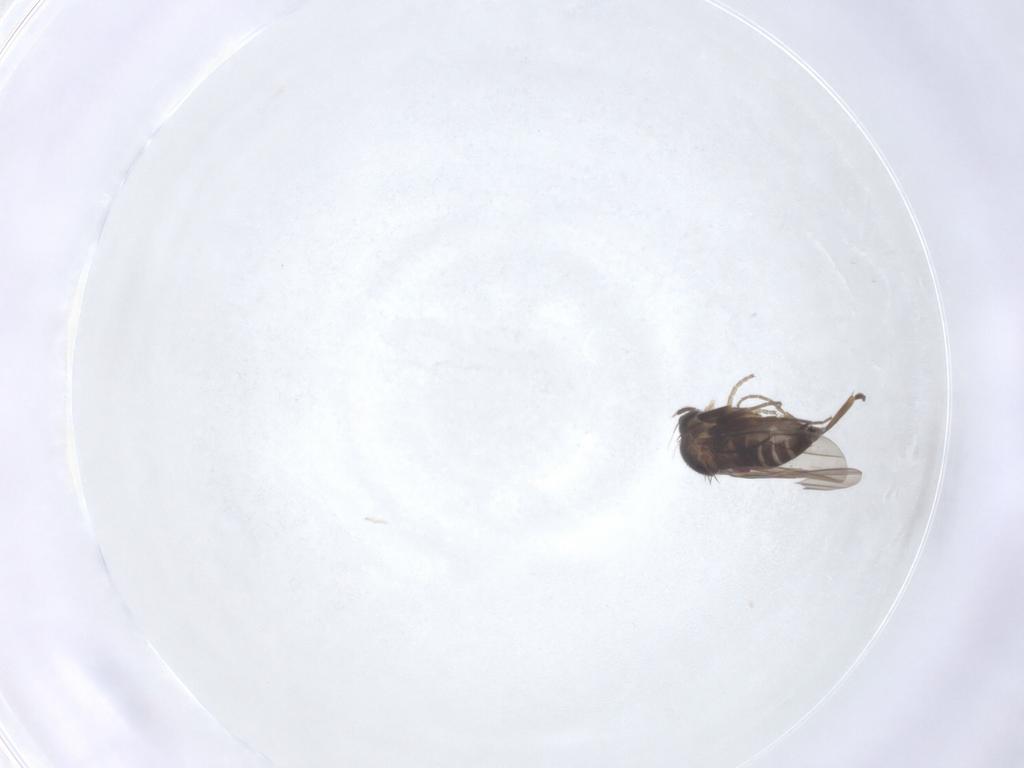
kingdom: Animalia
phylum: Arthropoda
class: Insecta
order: Diptera
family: Phoridae
